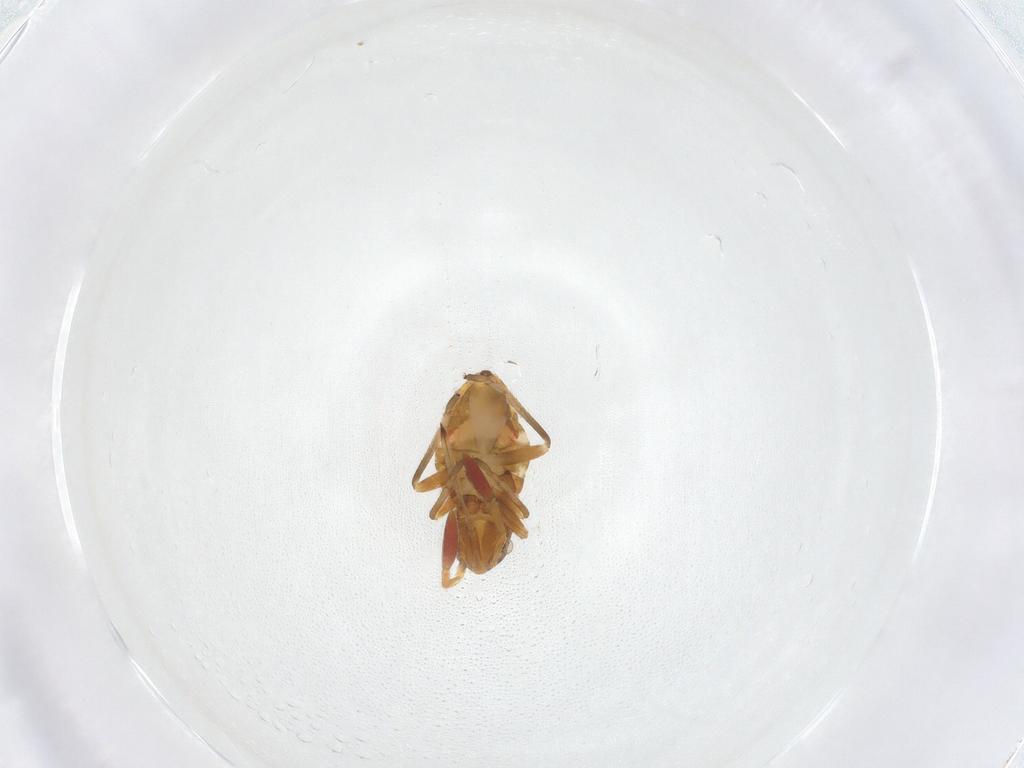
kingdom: Animalia
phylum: Arthropoda
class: Insecta
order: Hemiptera
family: Rhyparochromidae
